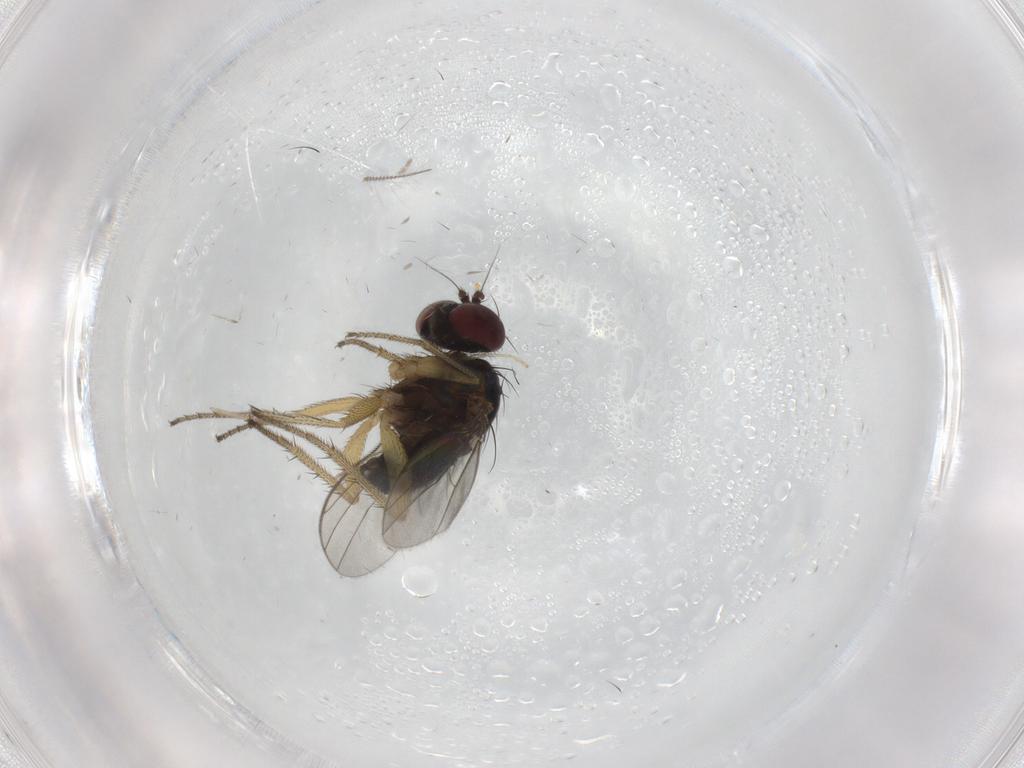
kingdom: Animalia
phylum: Arthropoda
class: Insecta
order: Diptera
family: Dolichopodidae
